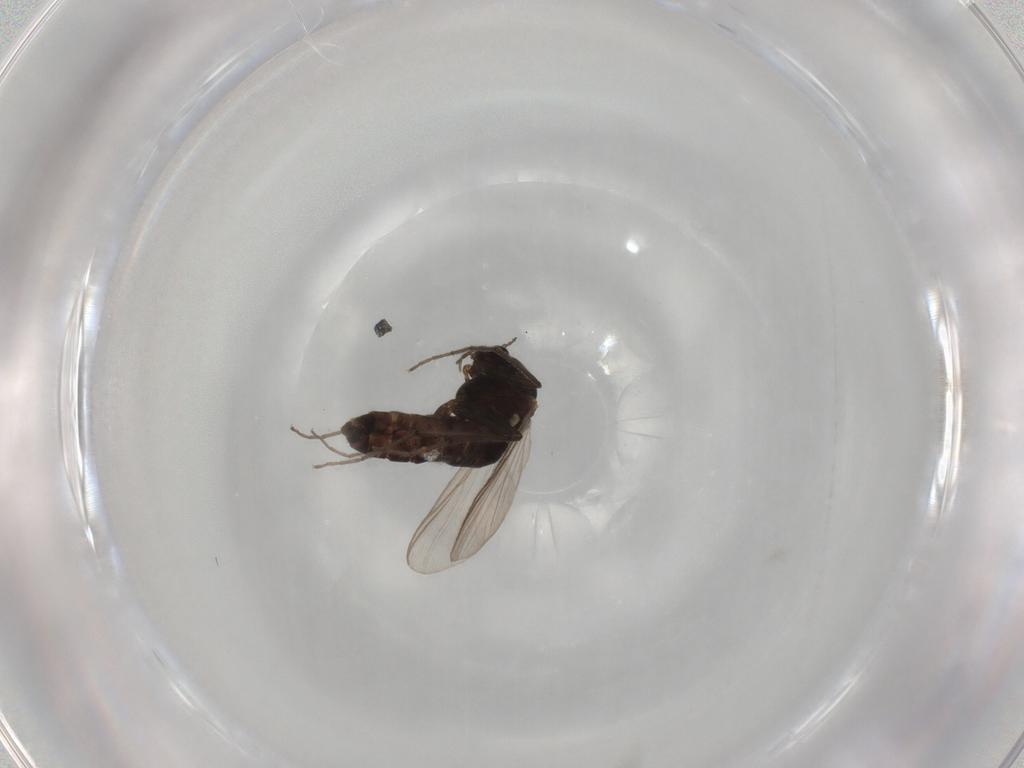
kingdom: Animalia
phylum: Arthropoda
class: Insecta
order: Diptera
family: Chironomidae
